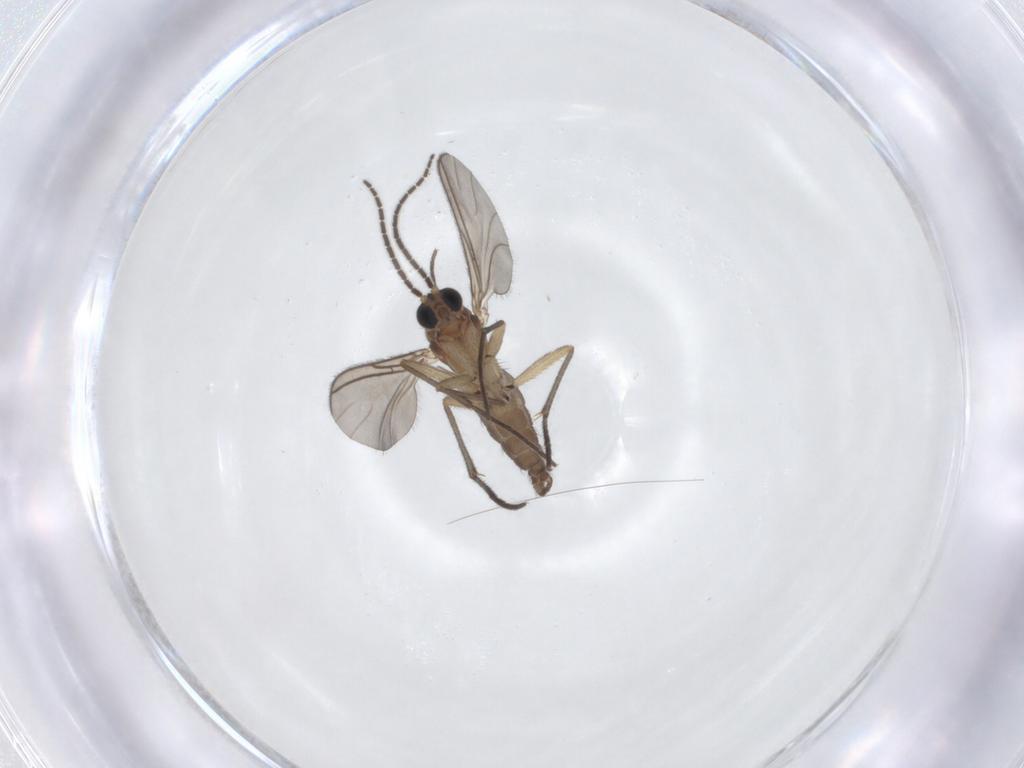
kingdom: Animalia
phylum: Arthropoda
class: Insecta
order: Diptera
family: Sciaridae
